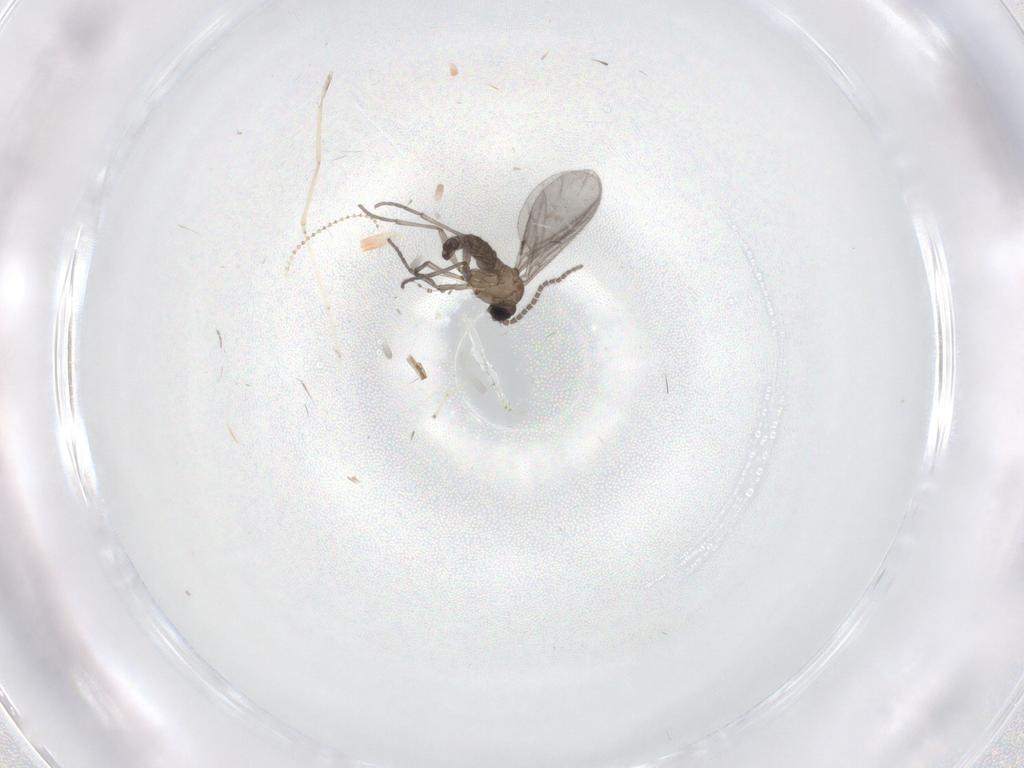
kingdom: Animalia
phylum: Arthropoda
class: Insecta
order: Diptera
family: Sciaridae
